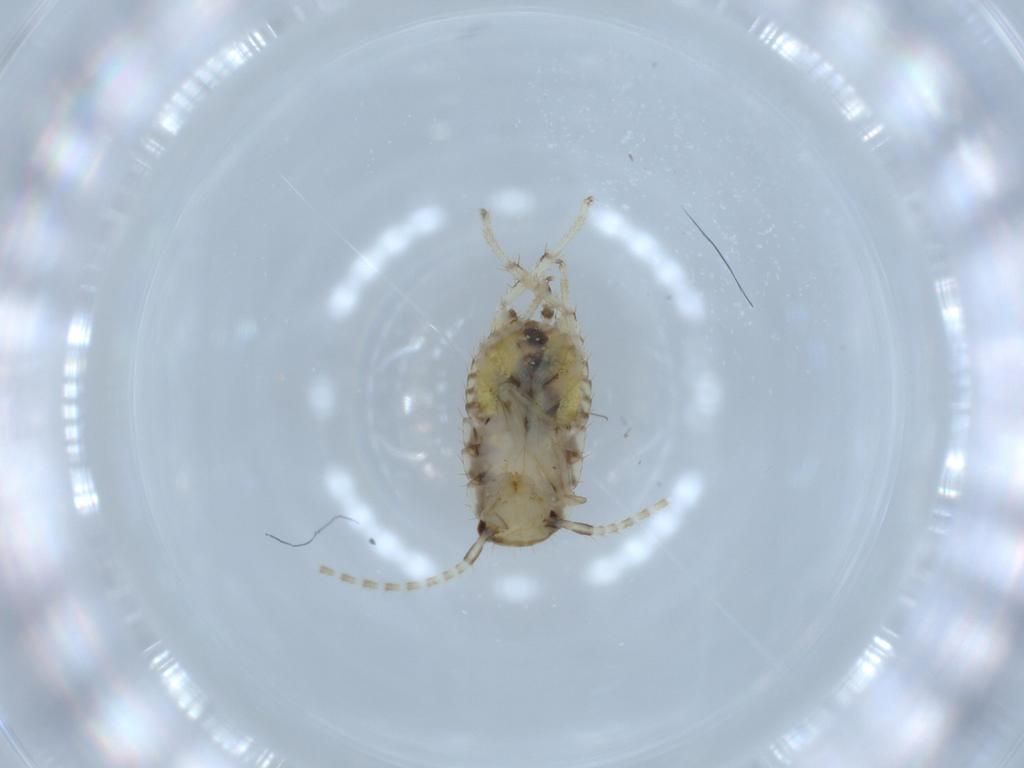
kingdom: Animalia
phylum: Arthropoda
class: Insecta
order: Blattodea
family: Ectobiidae
